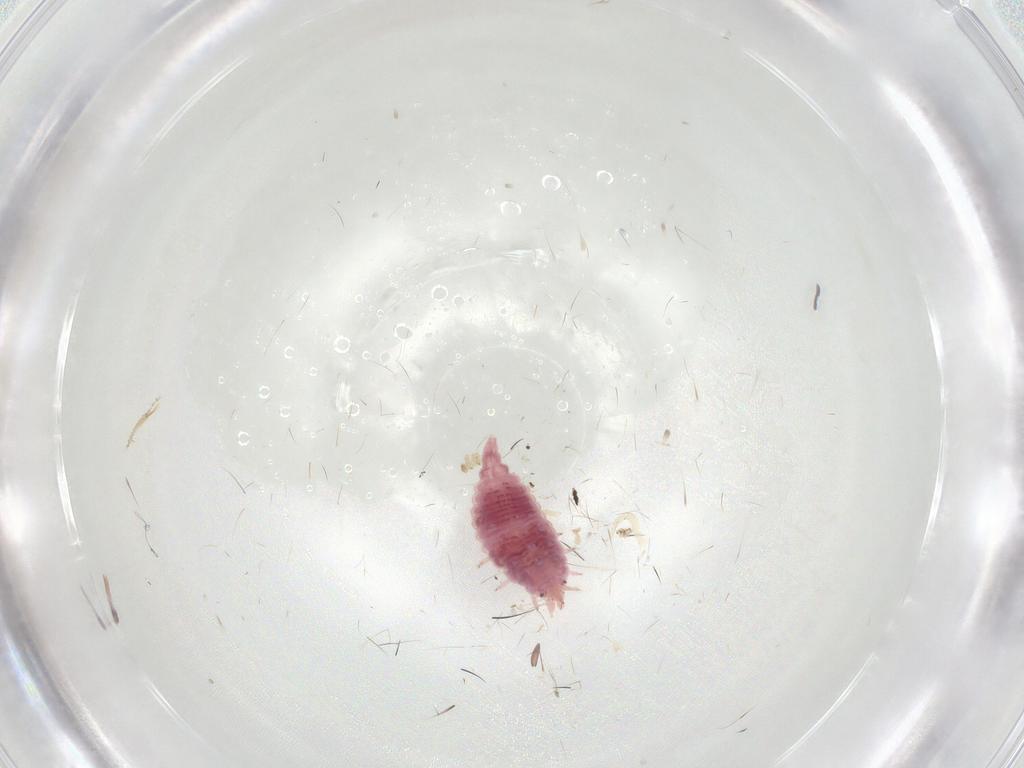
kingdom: Animalia
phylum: Arthropoda
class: Insecta
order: Neuroptera
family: Coniopterygidae
